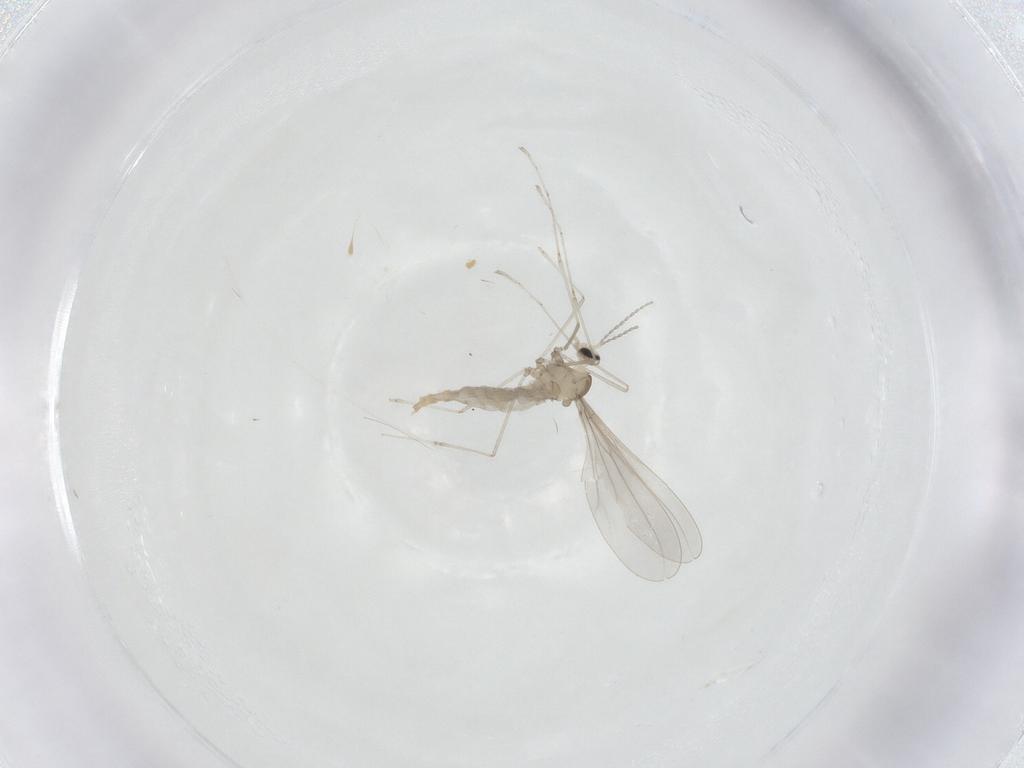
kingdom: Animalia
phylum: Arthropoda
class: Insecta
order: Diptera
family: Cecidomyiidae
